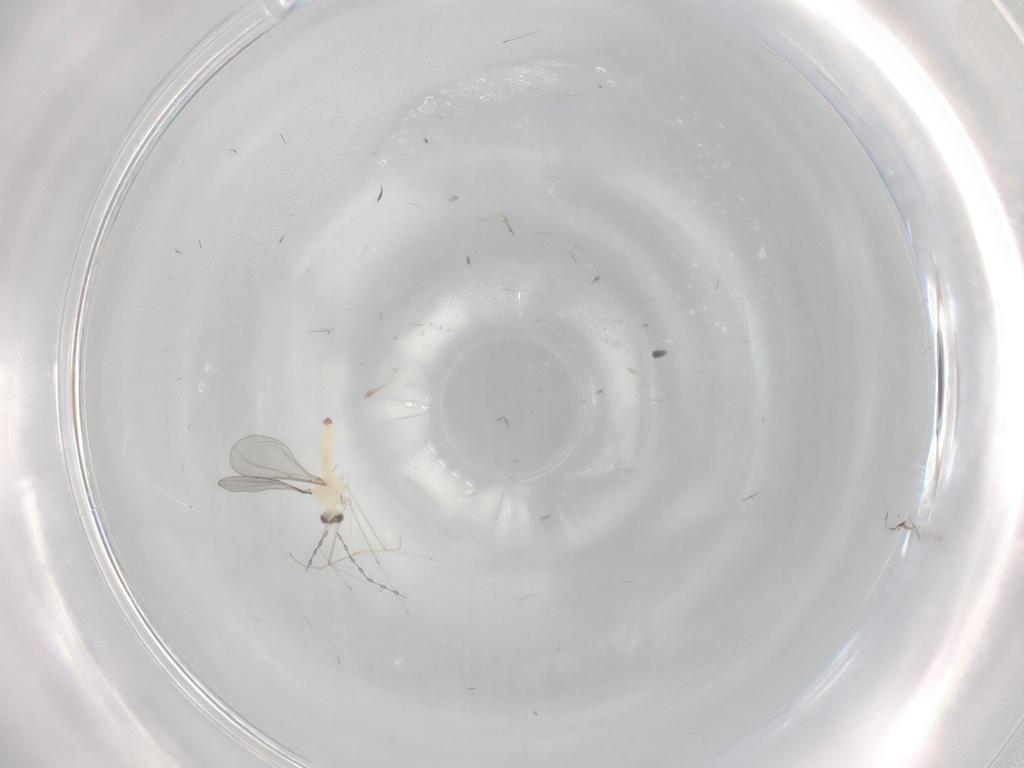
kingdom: Animalia
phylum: Arthropoda
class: Insecta
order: Diptera
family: Cecidomyiidae
